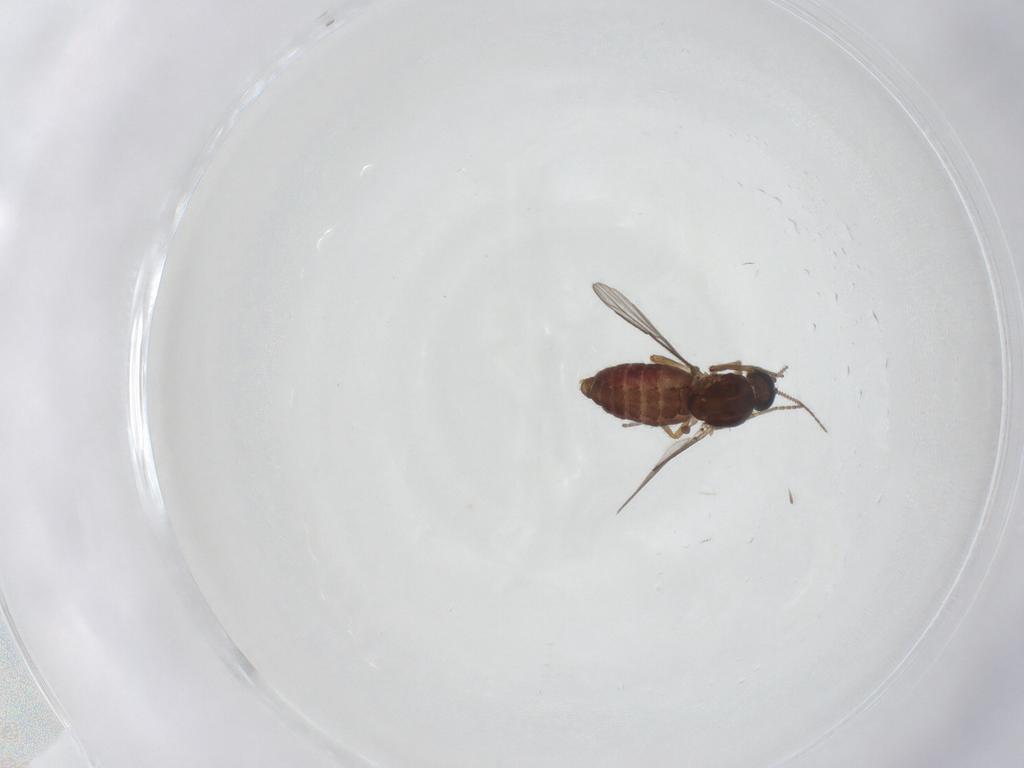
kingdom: Animalia
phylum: Arthropoda
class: Insecta
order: Diptera
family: Ceratopogonidae
